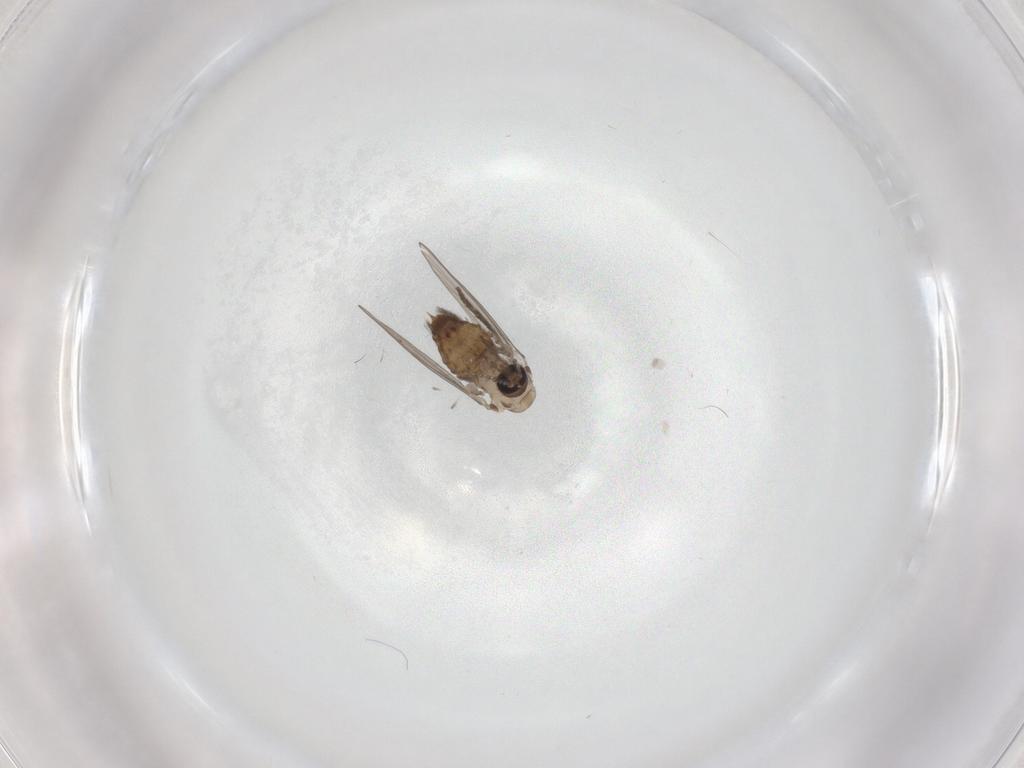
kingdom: Animalia
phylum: Arthropoda
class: Insecta
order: Diptera
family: Psychodidae
